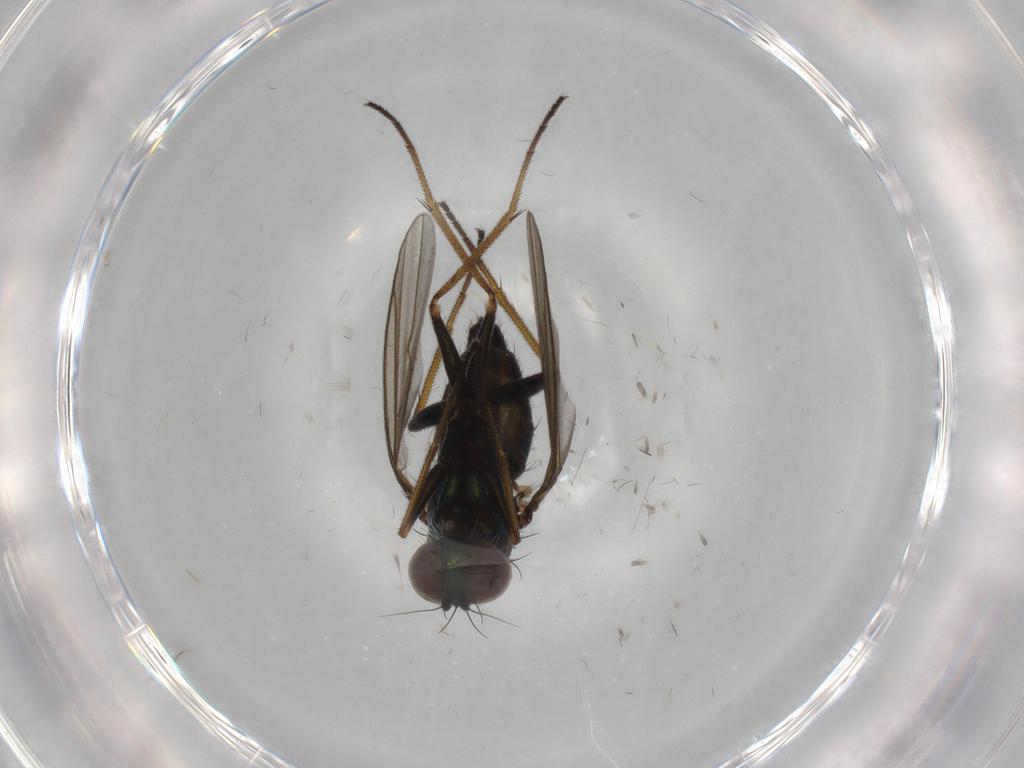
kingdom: Animalia
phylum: Arthropoda
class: Insecta
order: Diptera
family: Dolichopodidae
